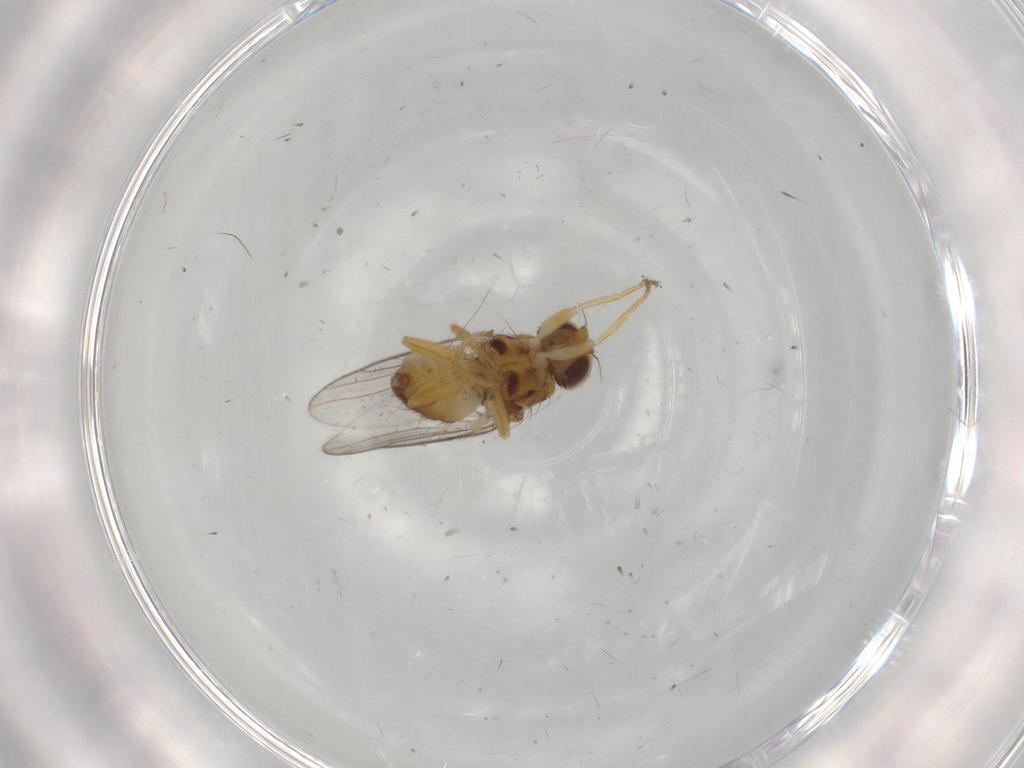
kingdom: Animalia
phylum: Arthropoda
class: Insecta
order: Diptera
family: Chloropidae
